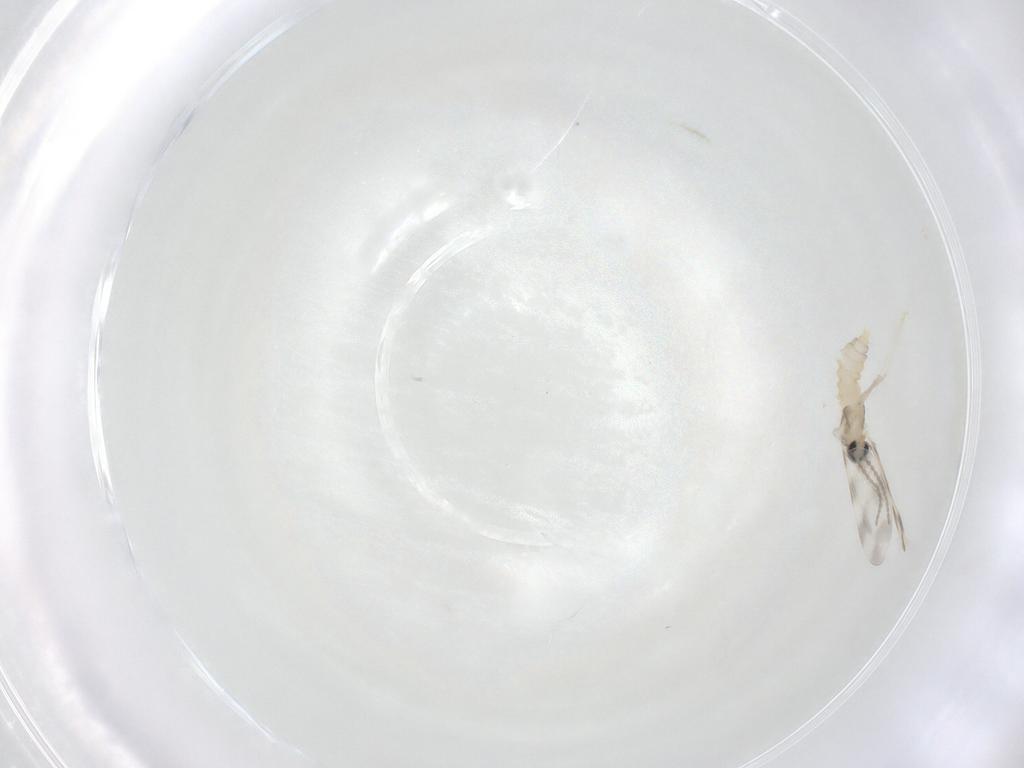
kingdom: Animalia
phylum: Arthropoda
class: Insecta
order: Diptera
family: Cecidomyiidae
